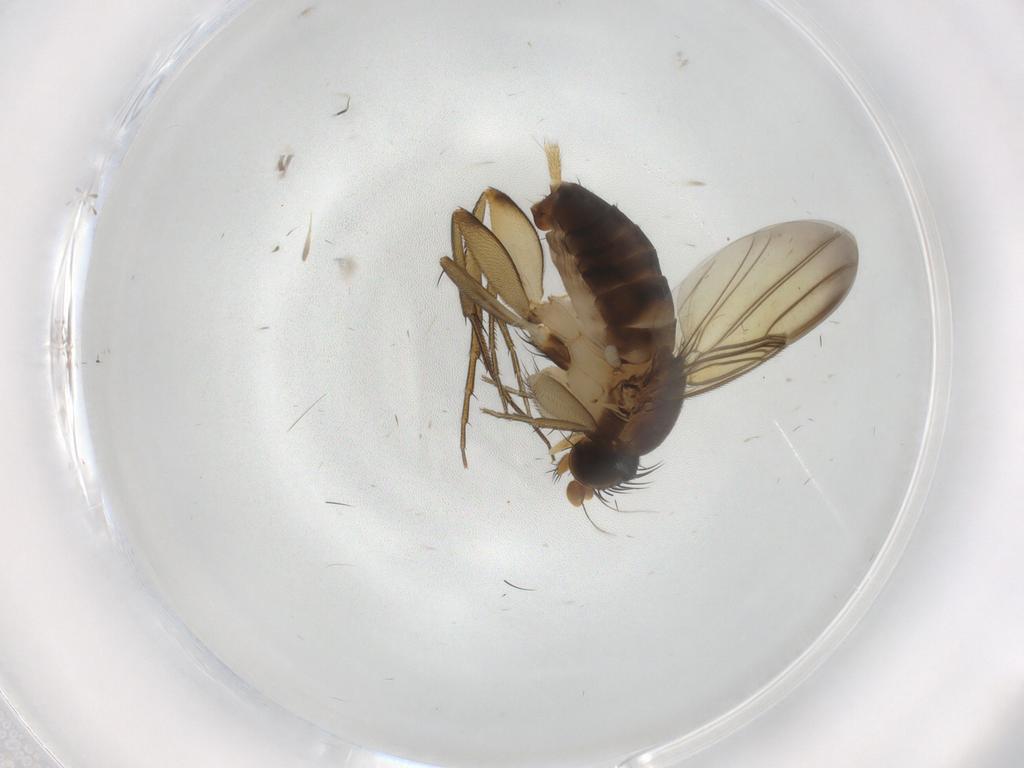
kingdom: Animalia
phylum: Arthropoda
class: Insecta
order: Diptera
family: Phoridae
